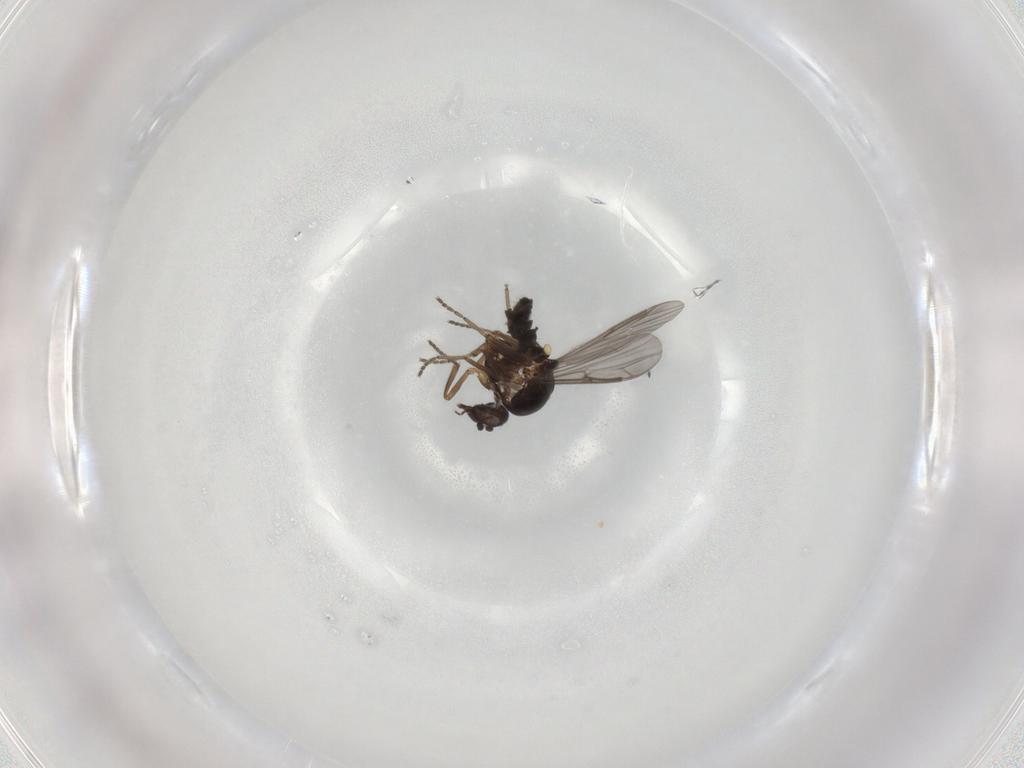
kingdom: Animalia
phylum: Arthropoda
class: Insecta
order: Diptera
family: Ceratopogonidae
